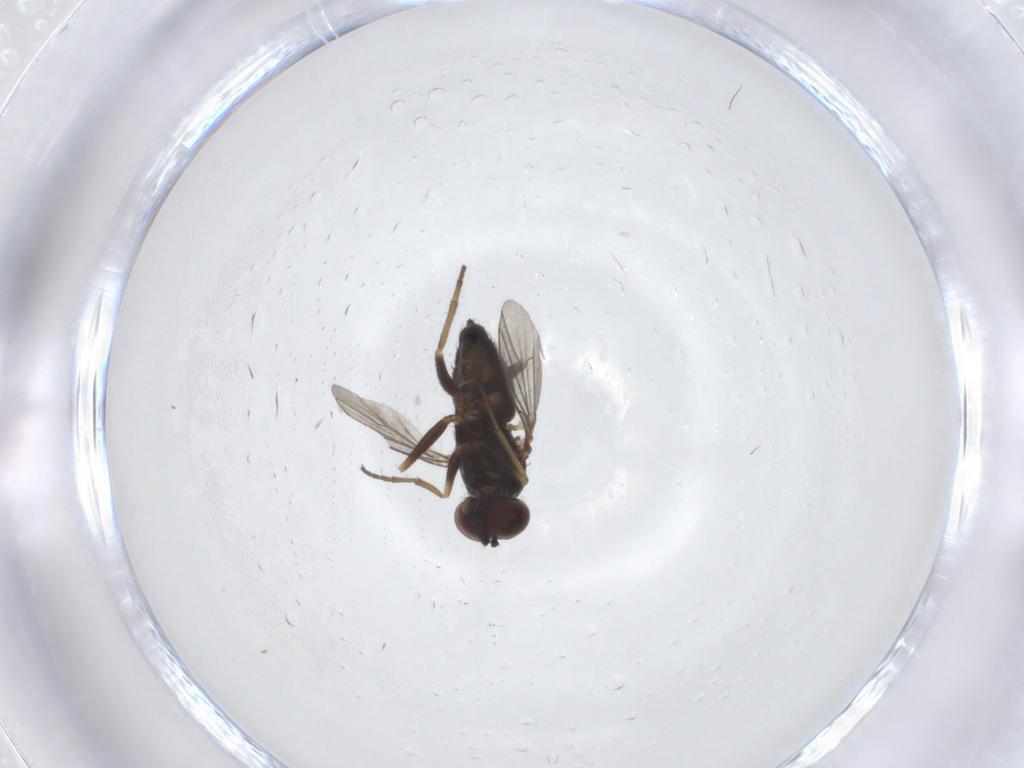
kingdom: Animalia
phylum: Arthropoda
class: Insecta
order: Diptera
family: Dolichopodidae
